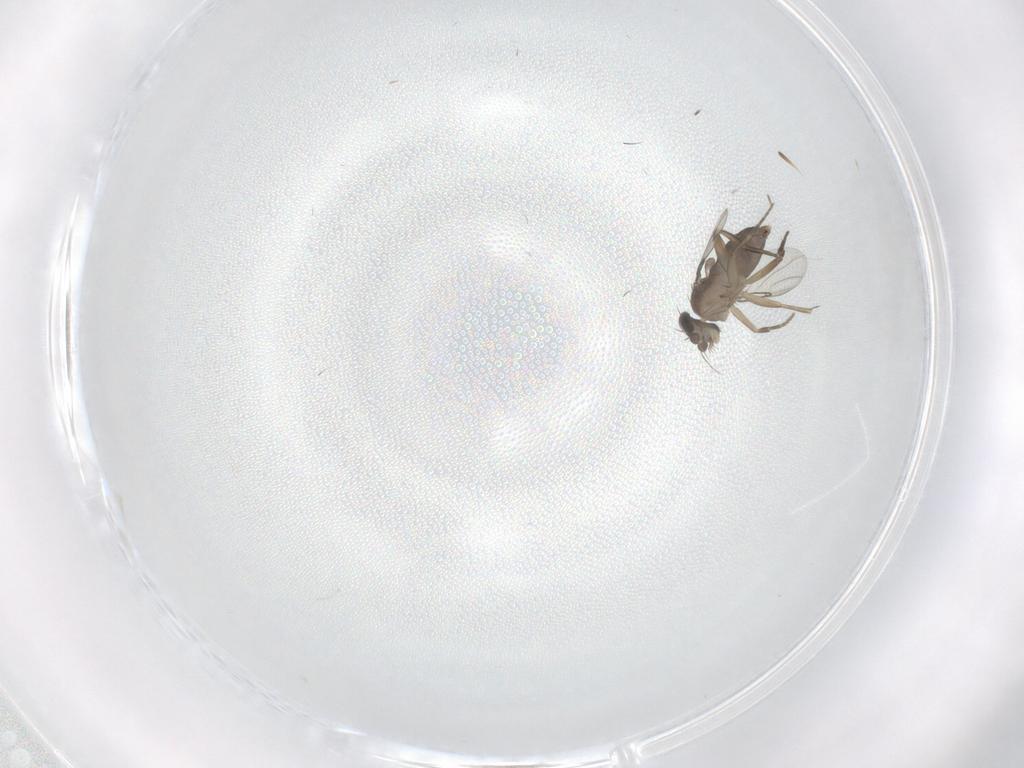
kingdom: Animalia
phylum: Arthropoda
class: Insecta
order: Diptera
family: Phoridae
